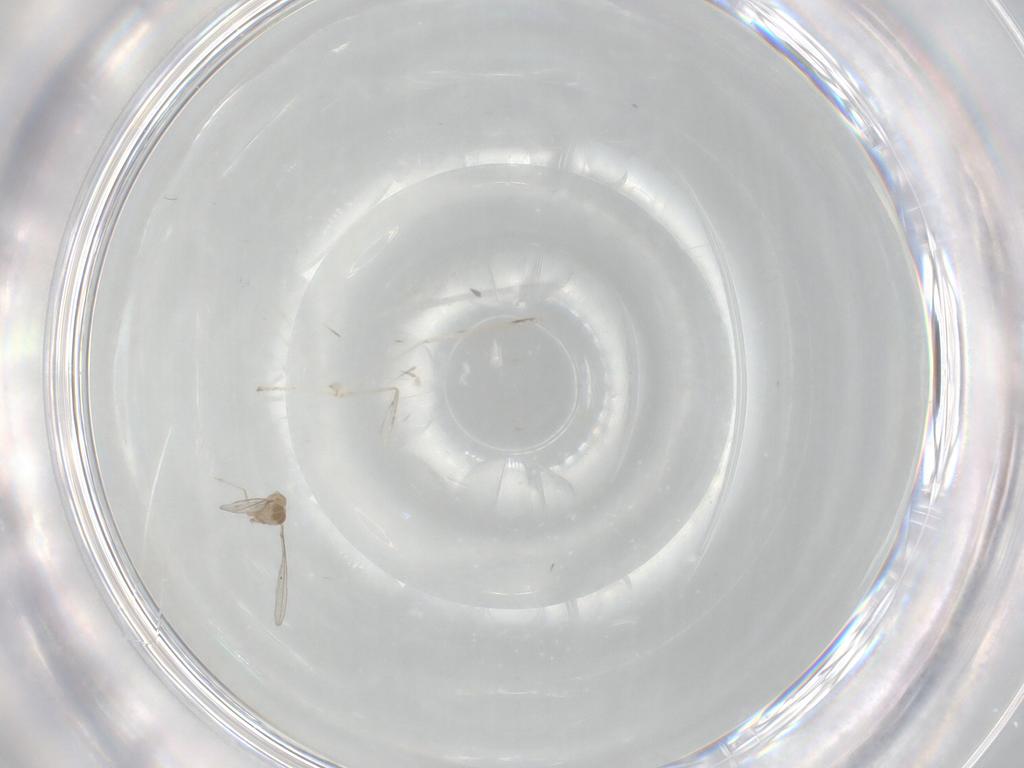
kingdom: Animalia
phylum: Arthropoda
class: Insecta
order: Diptera
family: Cecidomyiidae
